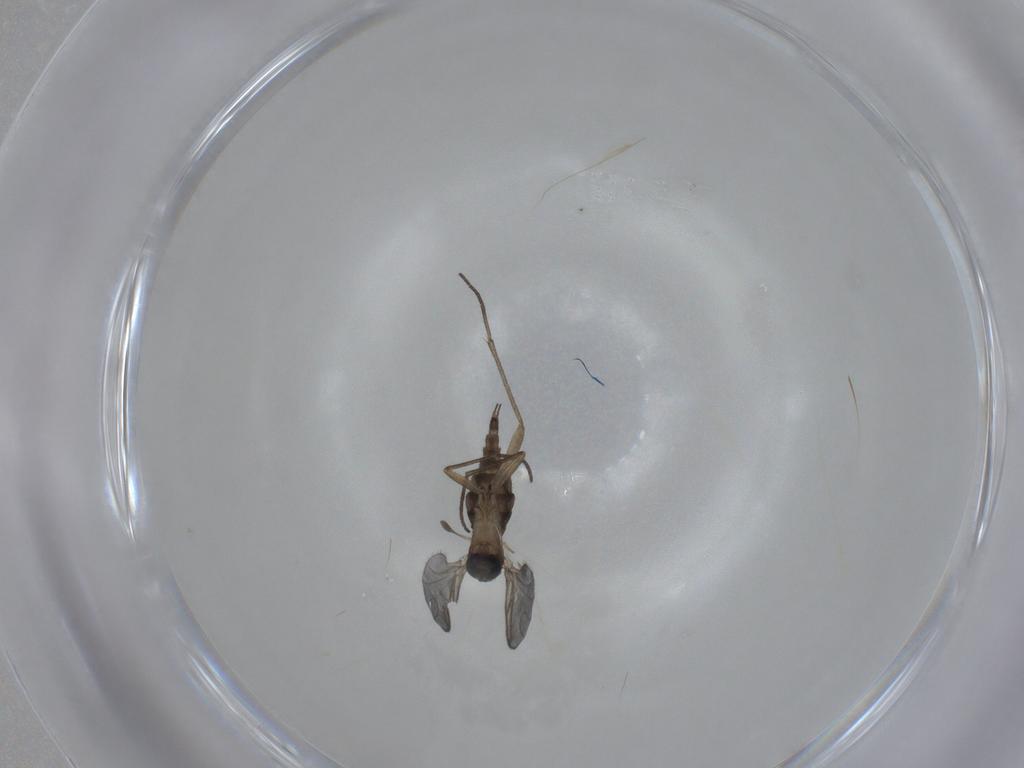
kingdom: Animalia
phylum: Arthropoda
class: Insecta
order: Diptera
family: Sciaridae
